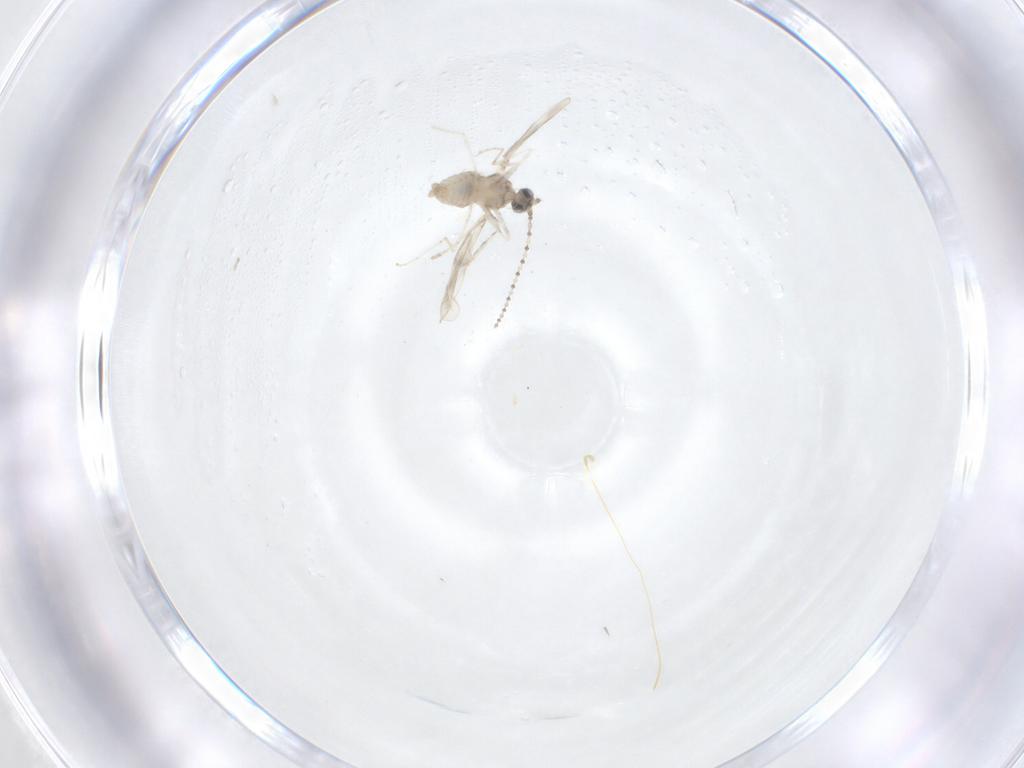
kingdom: Animalia
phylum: Arthropoda
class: Insecta
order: Diptera
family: Cecidomyiidae
